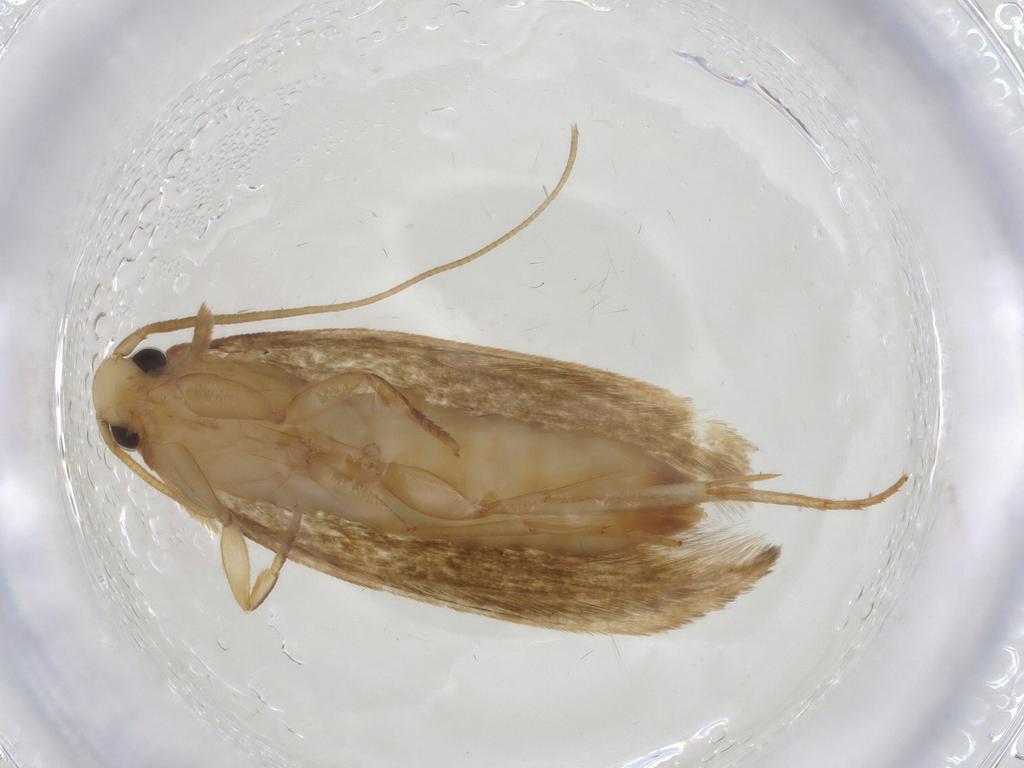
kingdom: Animalia
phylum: Arthropoda
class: Insecta
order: Lepidoptera
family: Tineidae
